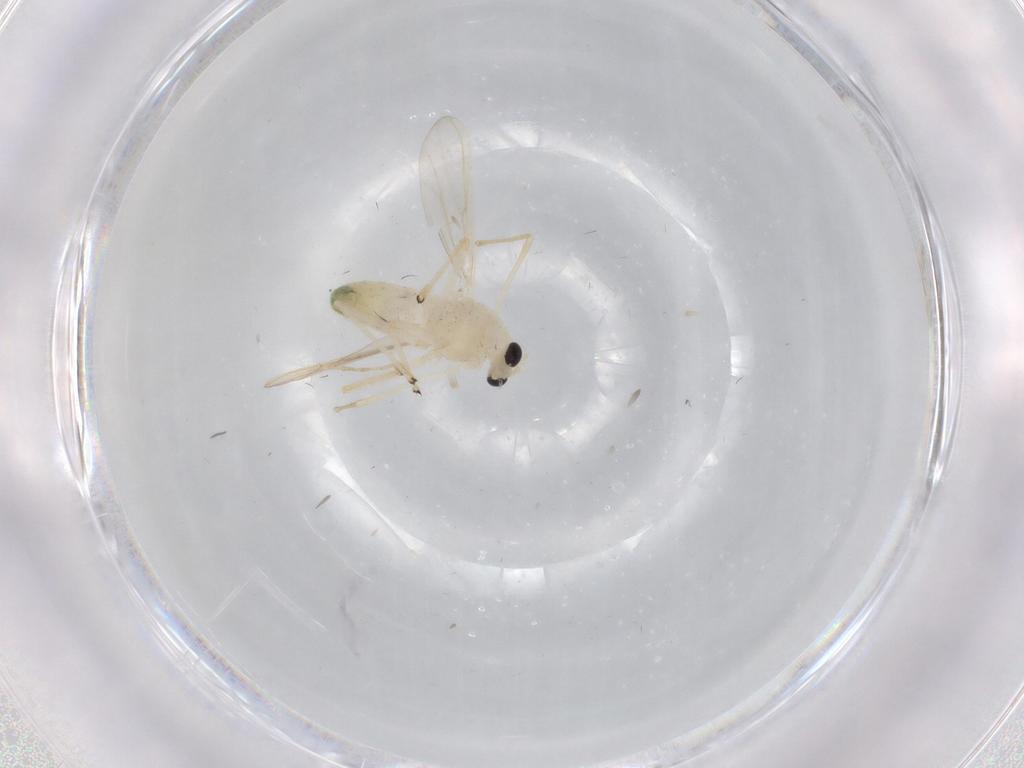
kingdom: Animalia
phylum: Arthropoda
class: Insecta
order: Diptera
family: Chironomidae
